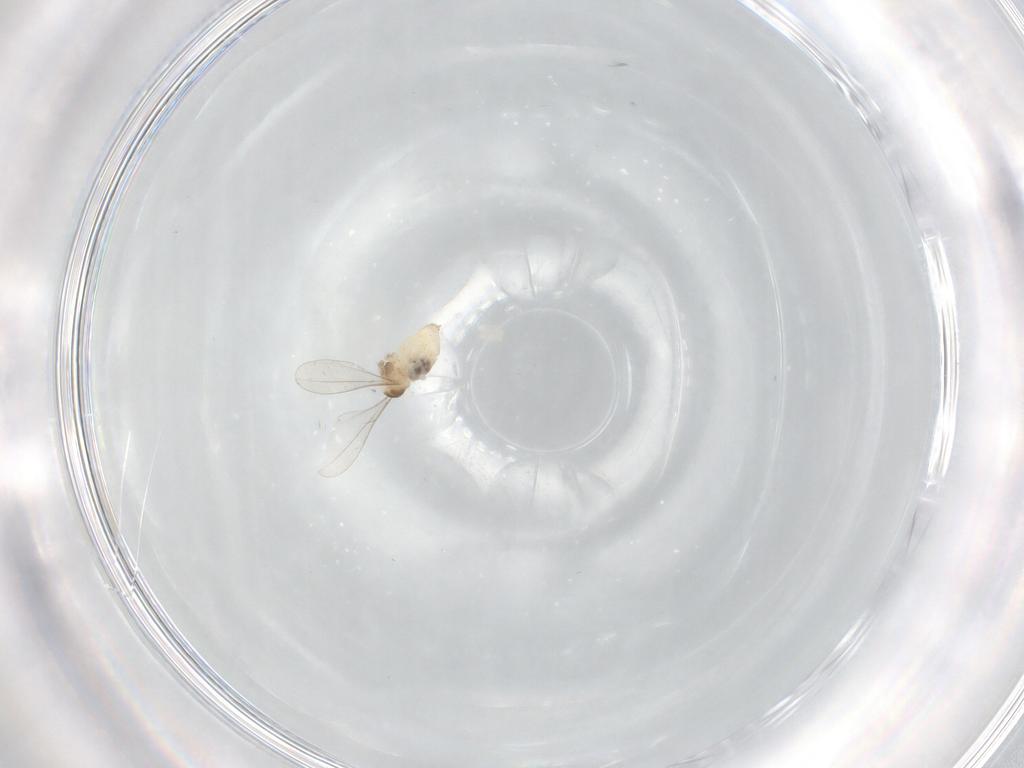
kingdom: Animalia
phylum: Arthropoda
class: Insecta
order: Diptera
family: Cecidomyiidae
